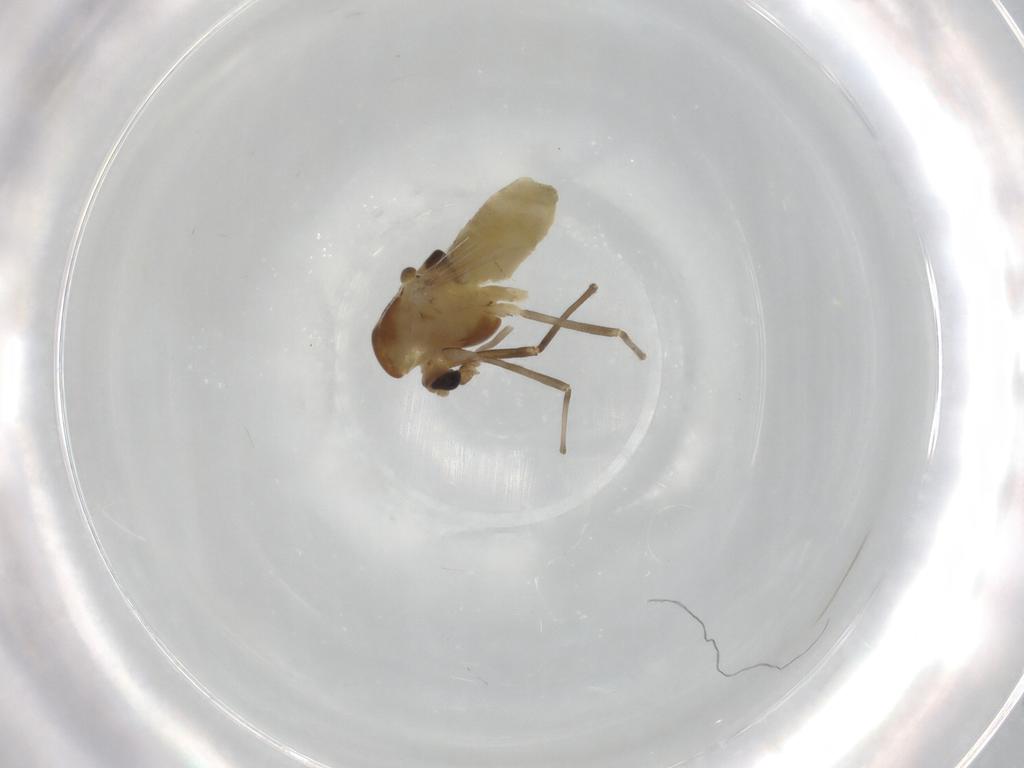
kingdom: Animalia
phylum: Arthropoda
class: Insecta
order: Diptera
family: Chironomidae
